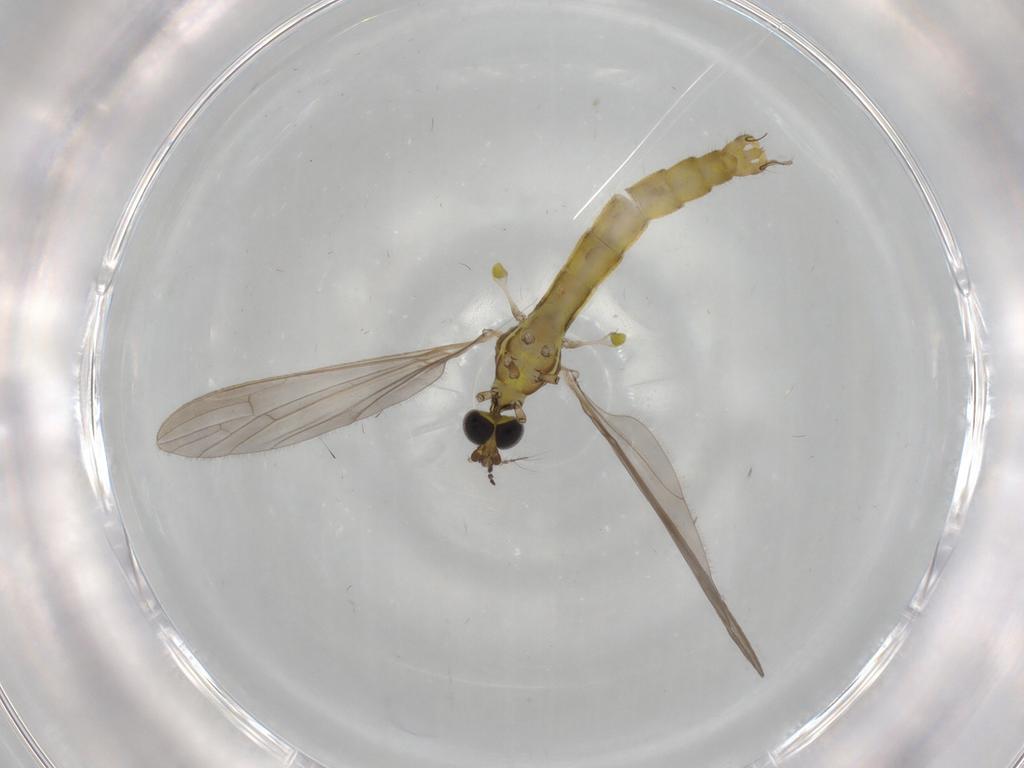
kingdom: Animalia
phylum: Arthropoda
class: Insecta
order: Diptera
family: Limoniidae
